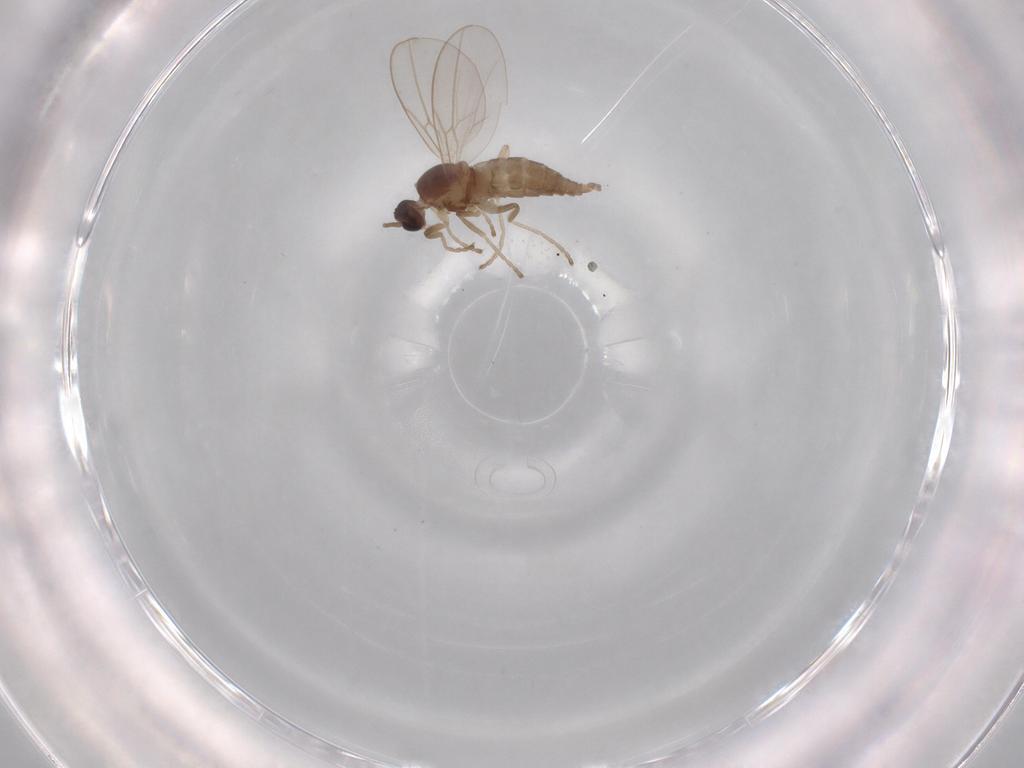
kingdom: Animalia
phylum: Arthropoda
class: Insecta
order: Diptera
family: Cecidomyiidae
